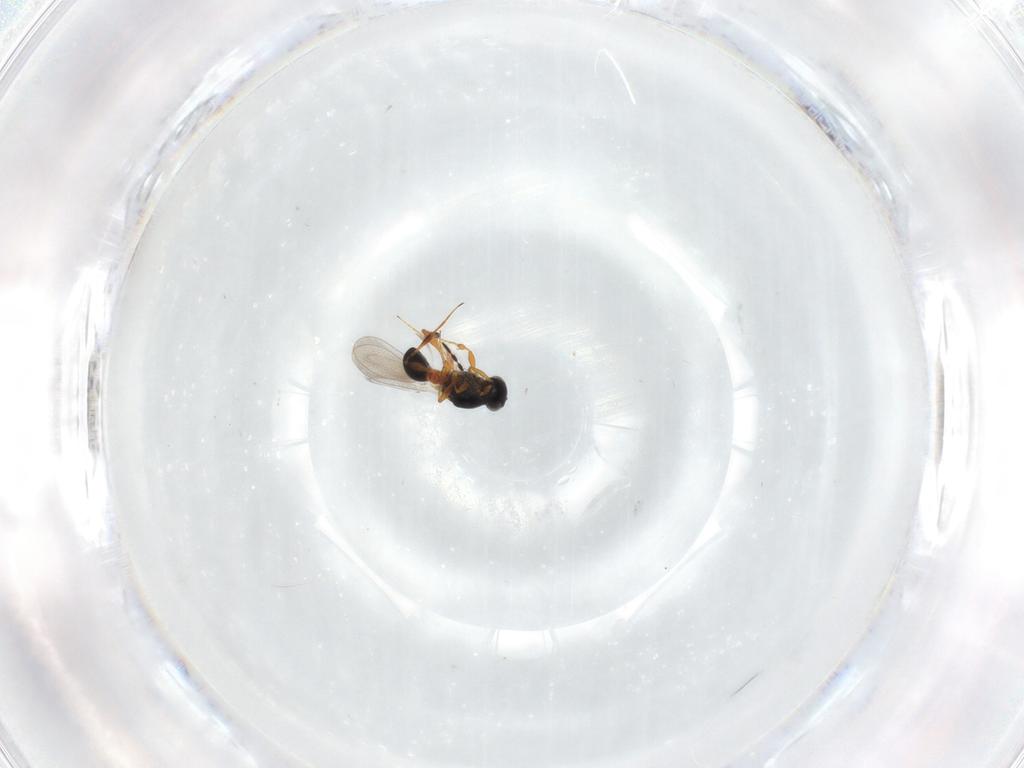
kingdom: Animalia
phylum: Arthropoda
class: Insecta
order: Hymenoptera
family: Platygastridae
